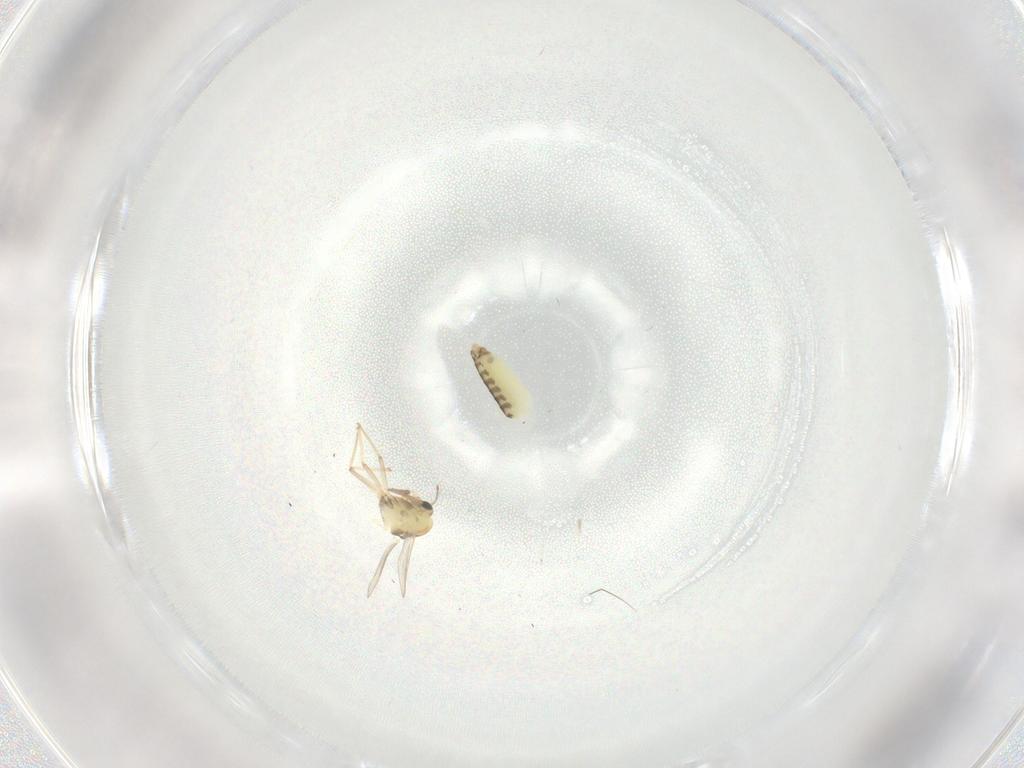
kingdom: Animalia
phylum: Arthropoda
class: Insecta
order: Diptera
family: Chironomidae
